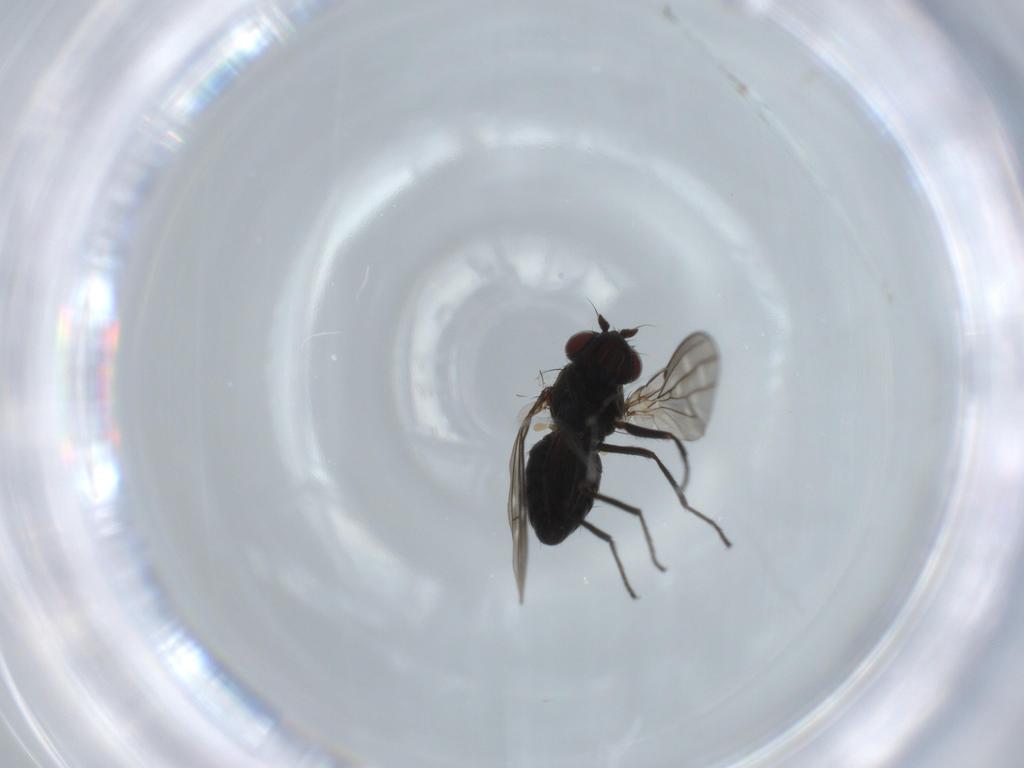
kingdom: Animalia
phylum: Arthropoda
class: Insecta
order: Diptera
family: Ephydridae
